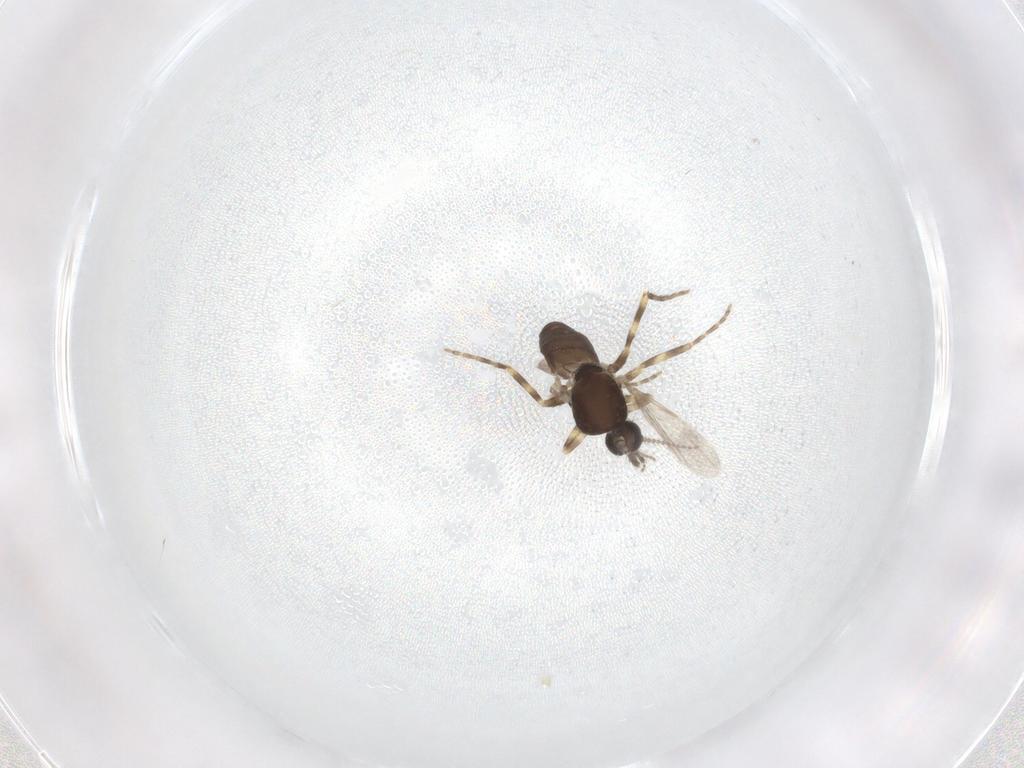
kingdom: Animalia
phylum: Arthropoda
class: Insecta
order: Diptera
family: Ceratopogonidae
